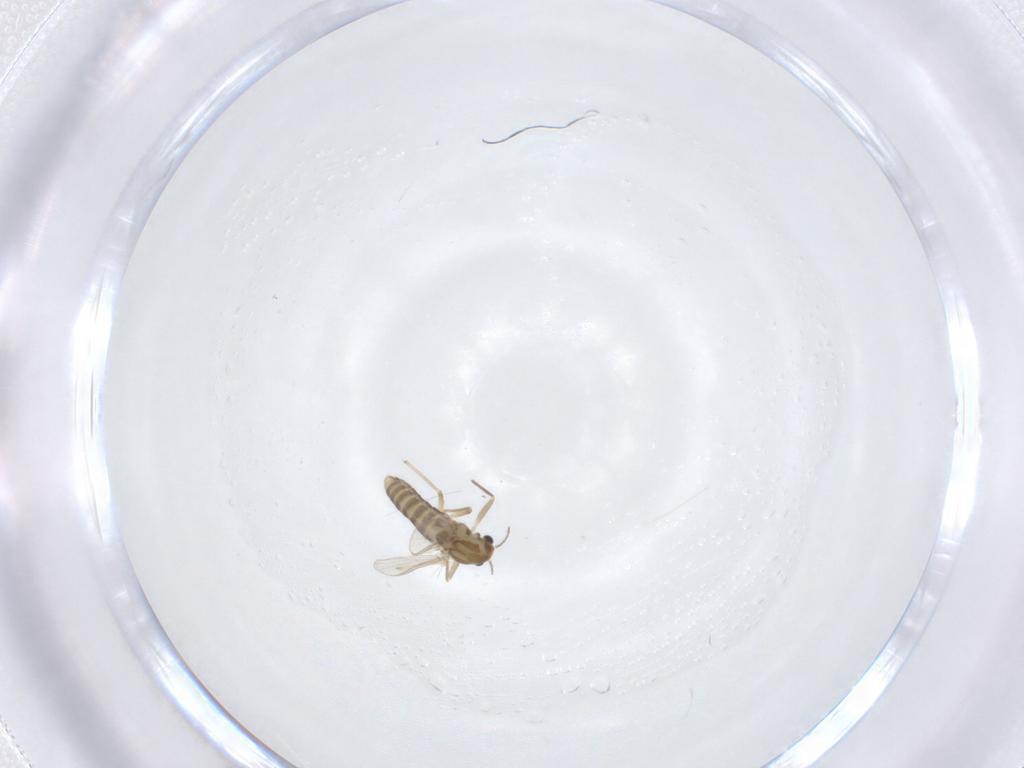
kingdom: Animalia
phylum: Arthropoda
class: Insecta
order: Diptera
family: Chironomidae
